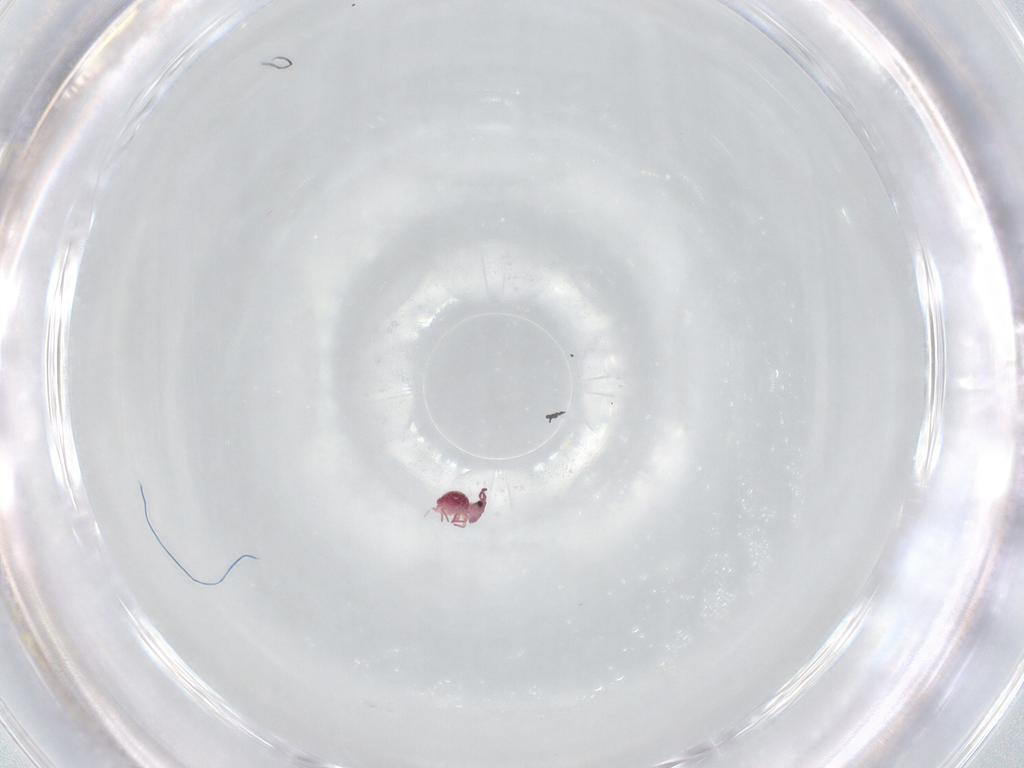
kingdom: Animalia
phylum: Arthropoda
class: Collembola
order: Symphypleona
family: Sminthurididae
